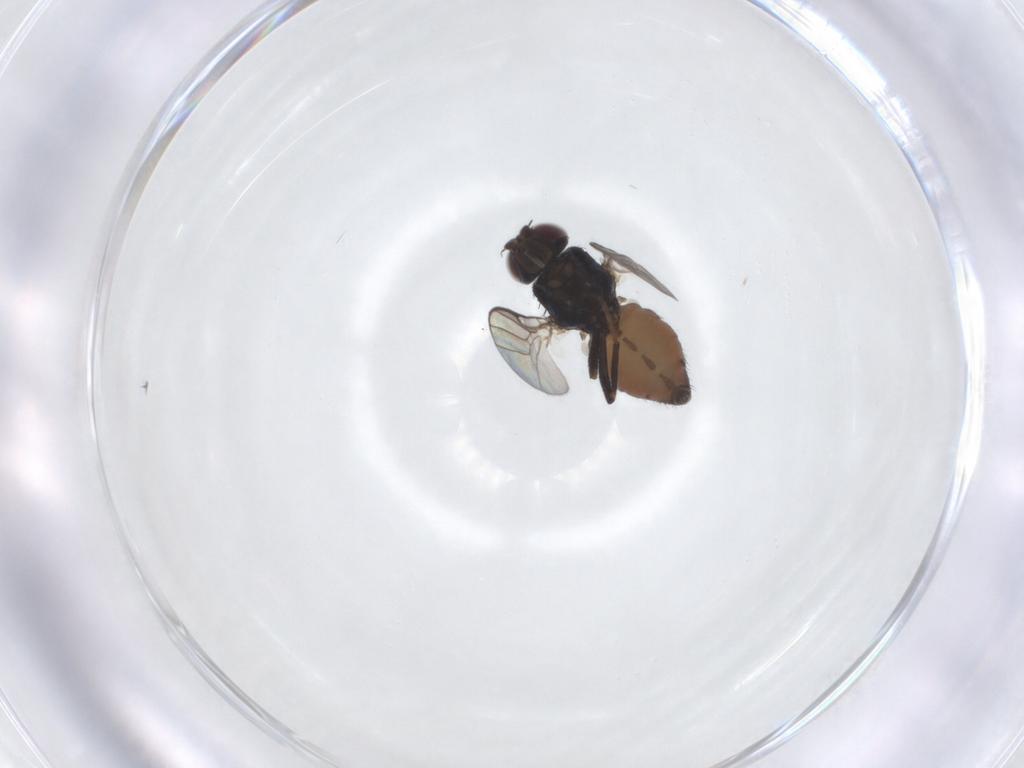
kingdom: Animalia
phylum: Arthropoda
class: Insecta
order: Diptera
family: Chloropidae
